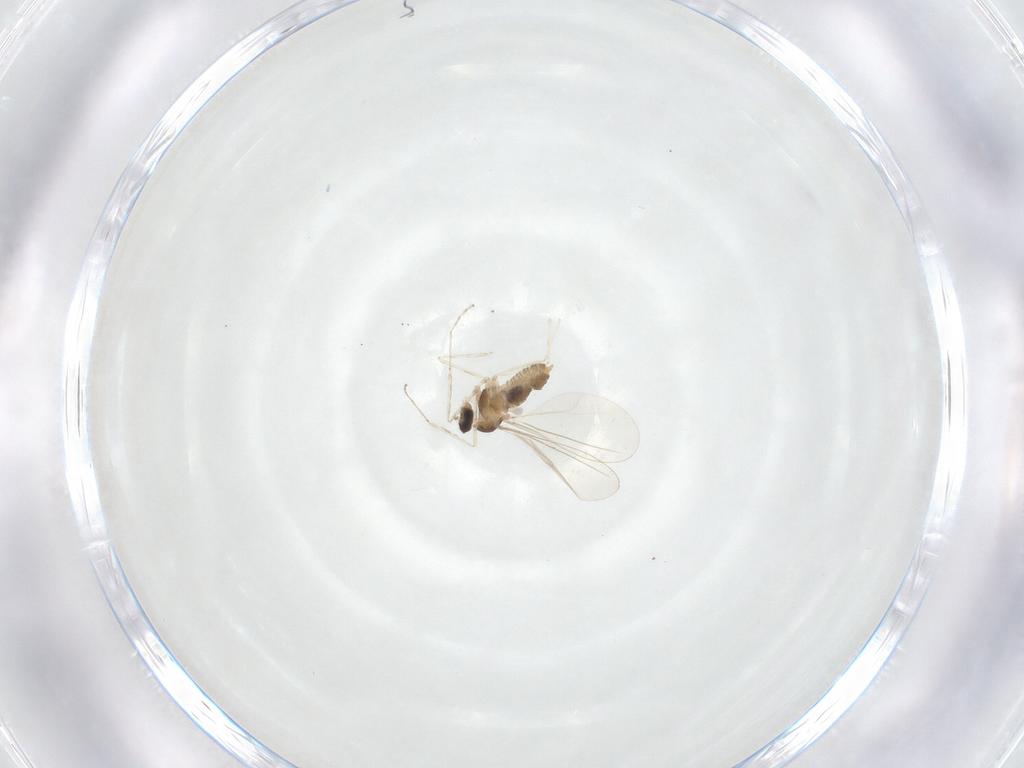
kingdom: Animalia
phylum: Arthropoda
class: Insecta
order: Diptera
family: Cecidomyiidae
